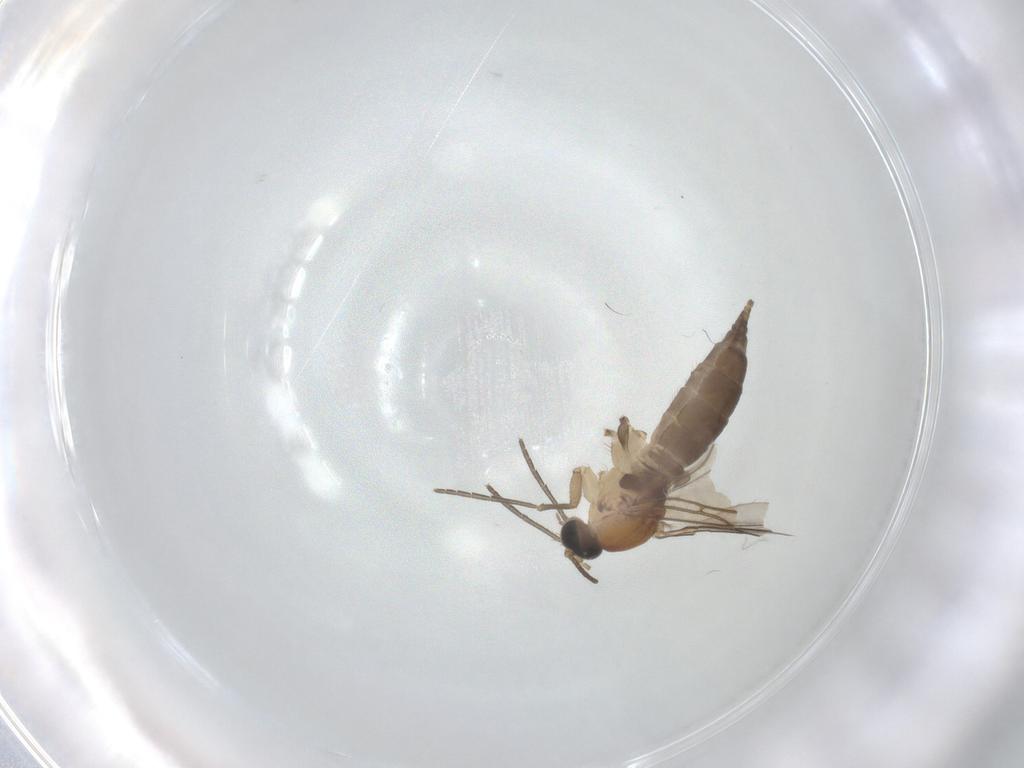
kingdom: Animalia
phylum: Arthropoda
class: Insecta
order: Diptera
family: Sciaridae
